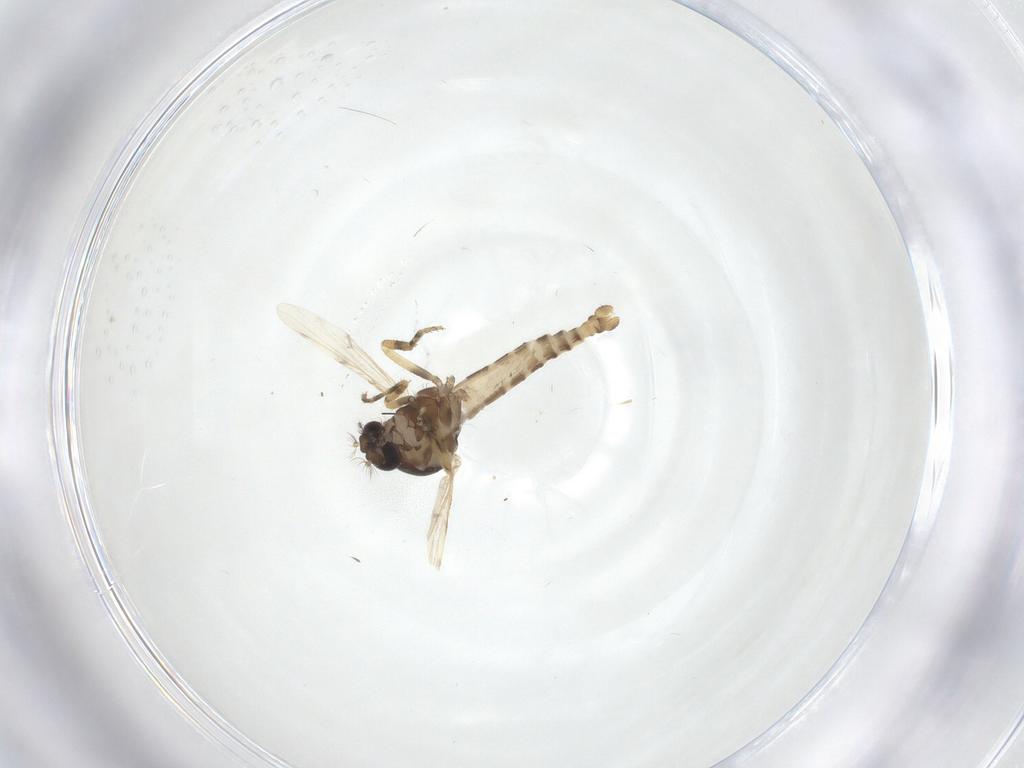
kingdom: Animalia
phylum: Arthropoda
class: Insecta
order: Diptera
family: Ceratopogonidae
